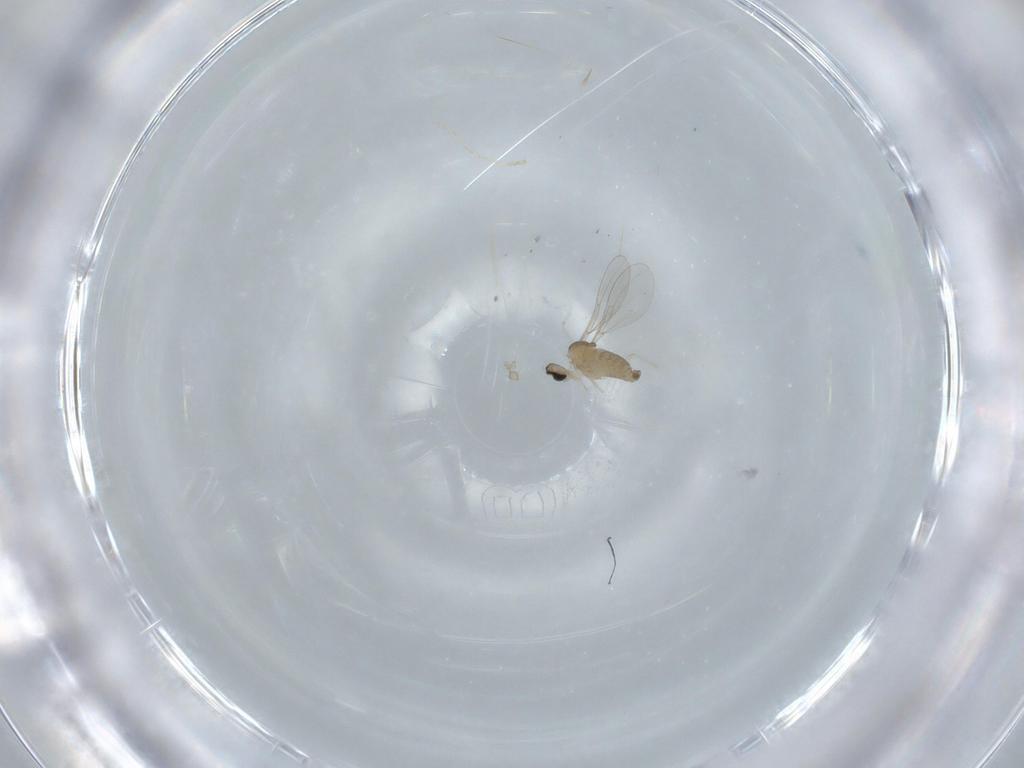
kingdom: Animalia
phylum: Arthropoda
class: Insecta
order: Diptera
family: Cecidomyiidae
